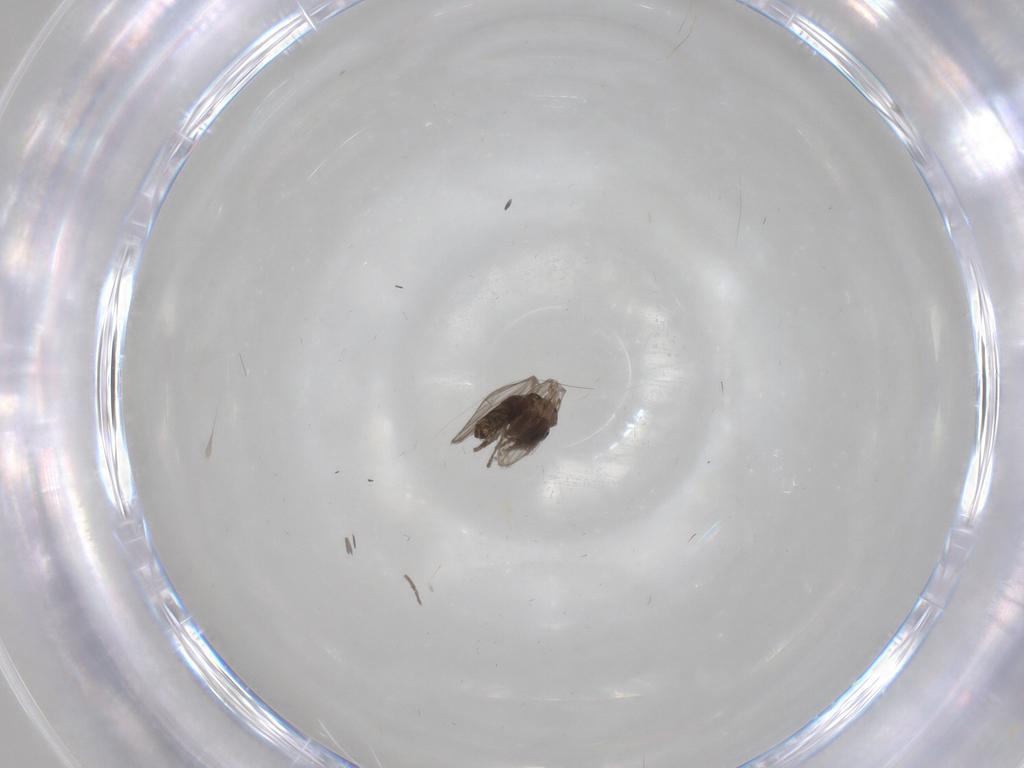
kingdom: Animalia
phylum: Arthropoda
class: Insecta
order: Diptera
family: Psychodidae
